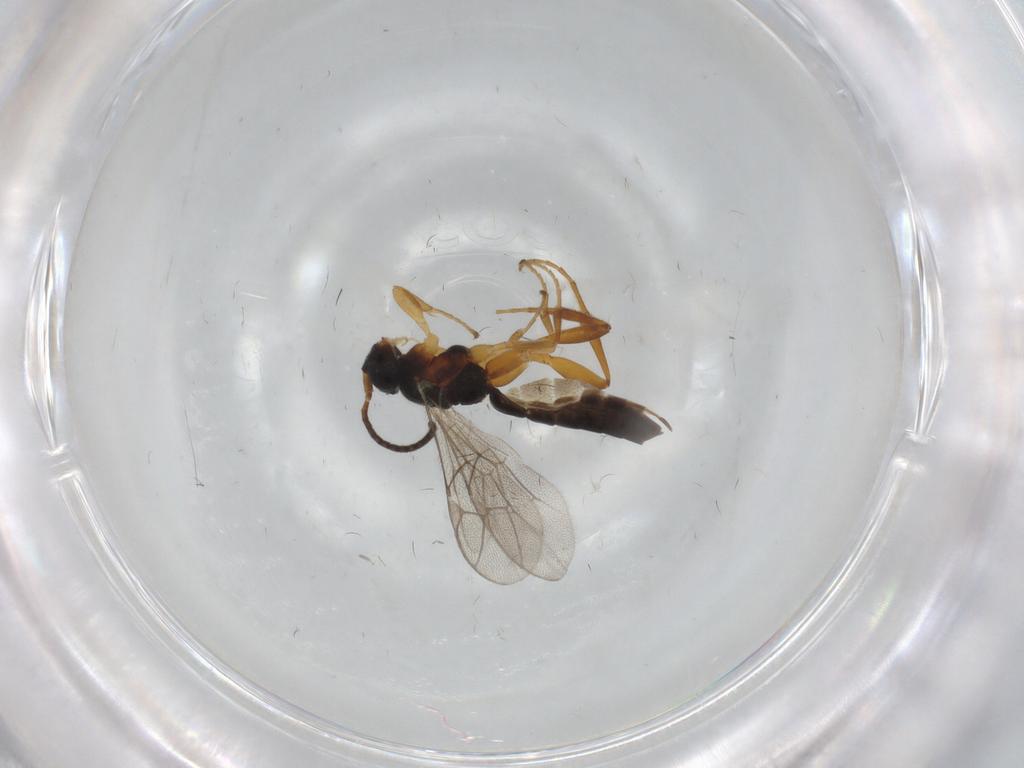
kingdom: Animalia
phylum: Arthropoda
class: Insecta
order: Hymenoptera
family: Ichneumonidae
